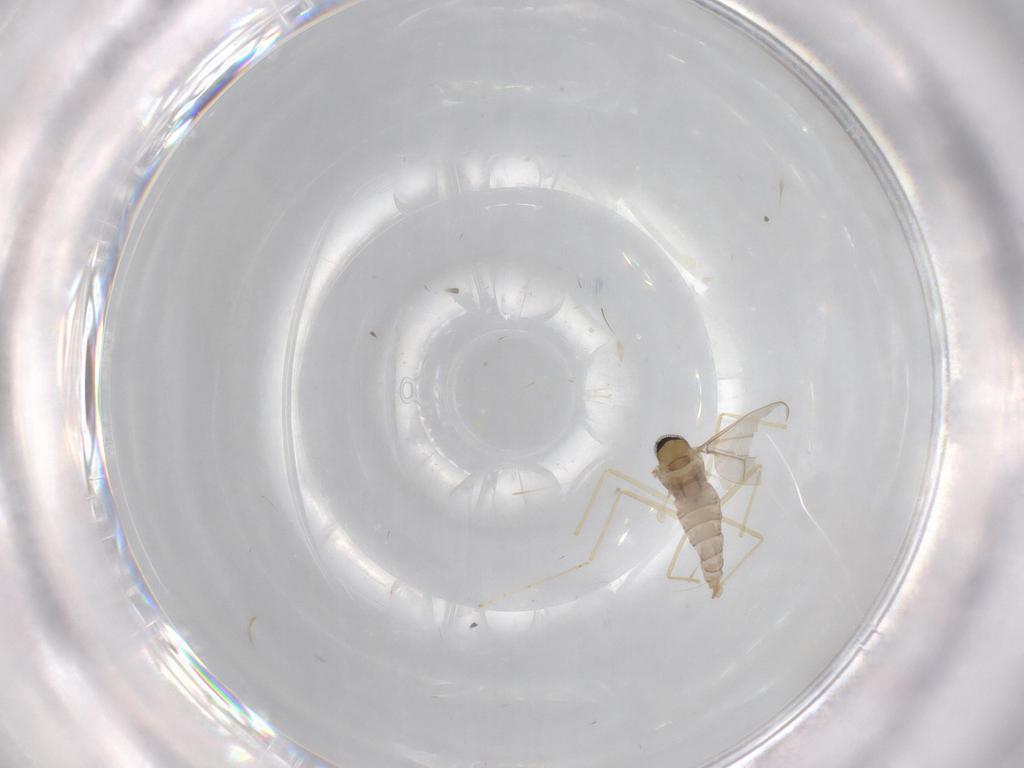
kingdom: Animalia
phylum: Arthropoda
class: Insecta
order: Diptera
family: Cecidomyiidae
